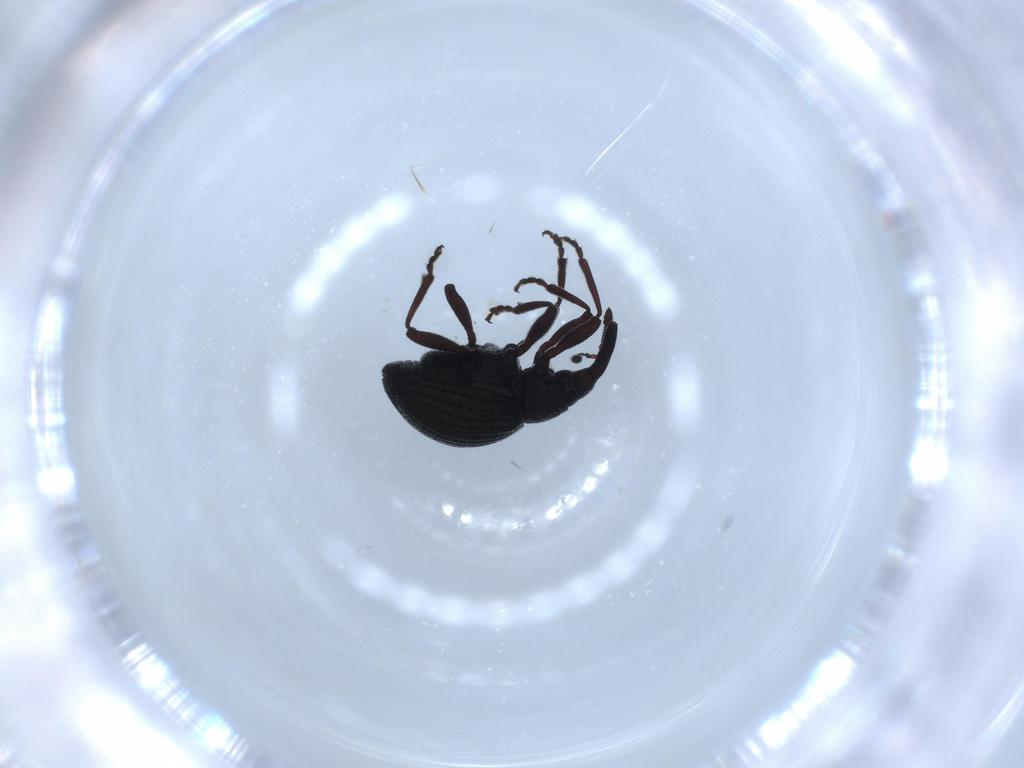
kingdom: Animalia
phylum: Arthropoda
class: Insecta
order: Coleoptera
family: Brentidae
